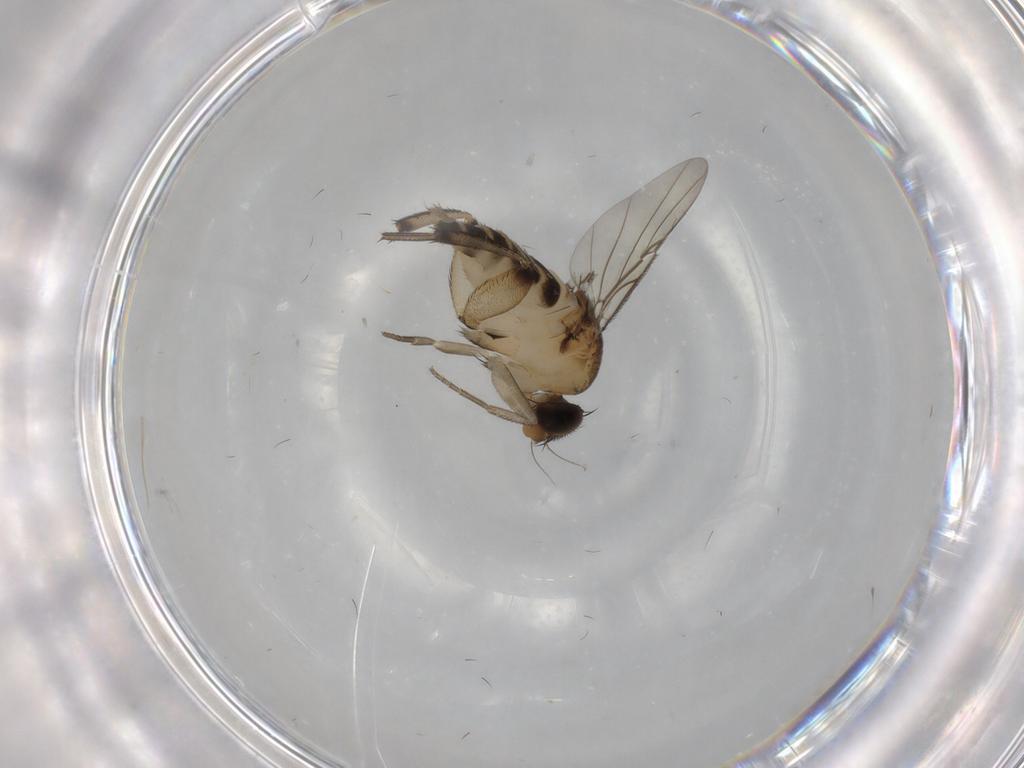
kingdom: Animalia
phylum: Arthropoda
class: Insecta
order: Diptera
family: Phoridae
